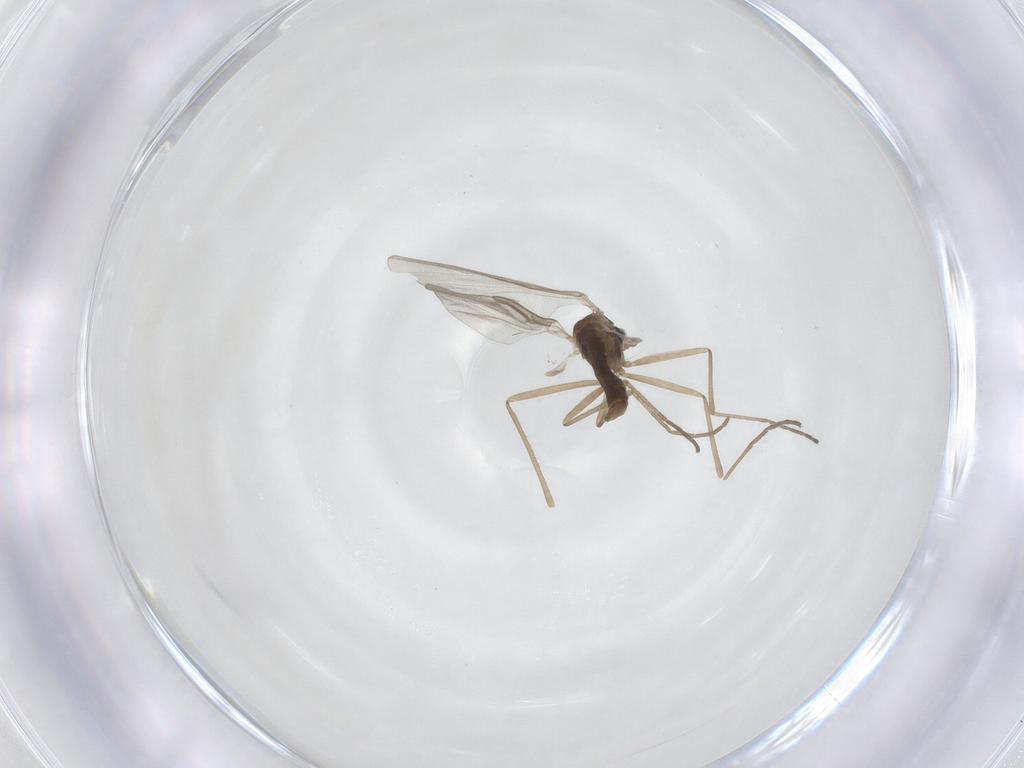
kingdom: Animalia
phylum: Arthropoda
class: Insecta
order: Diptera
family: Cecidomyiidae
